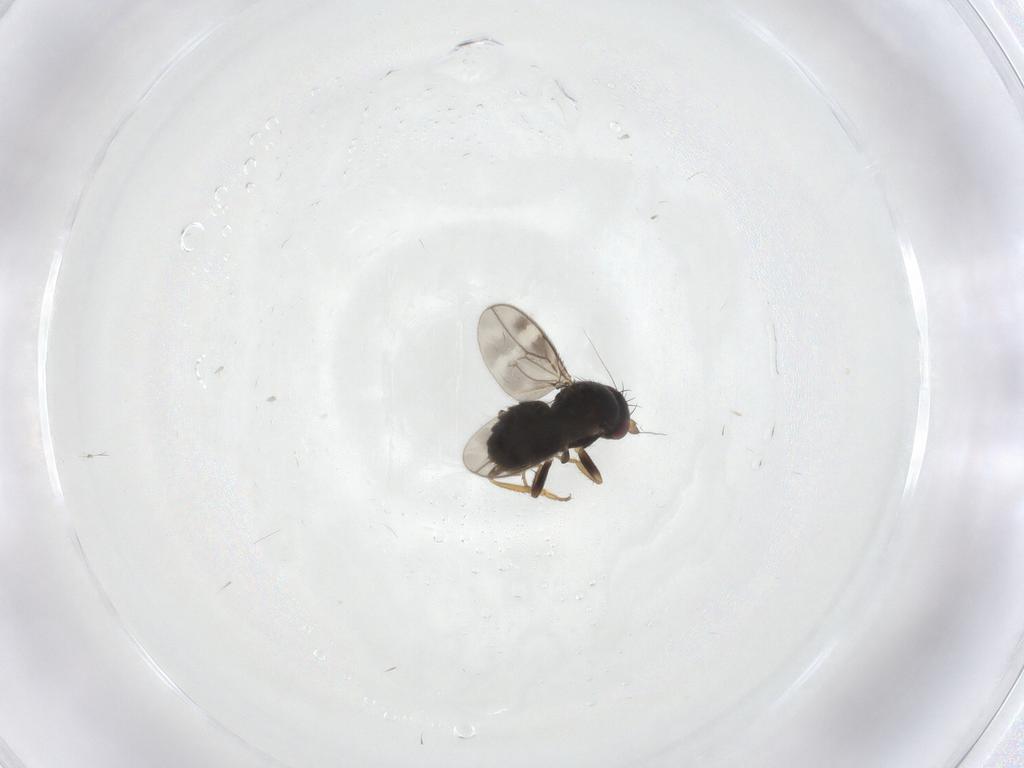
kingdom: Animalia
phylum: Arthropoda
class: Insecta
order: Diptera
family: Sphaeroceridae
